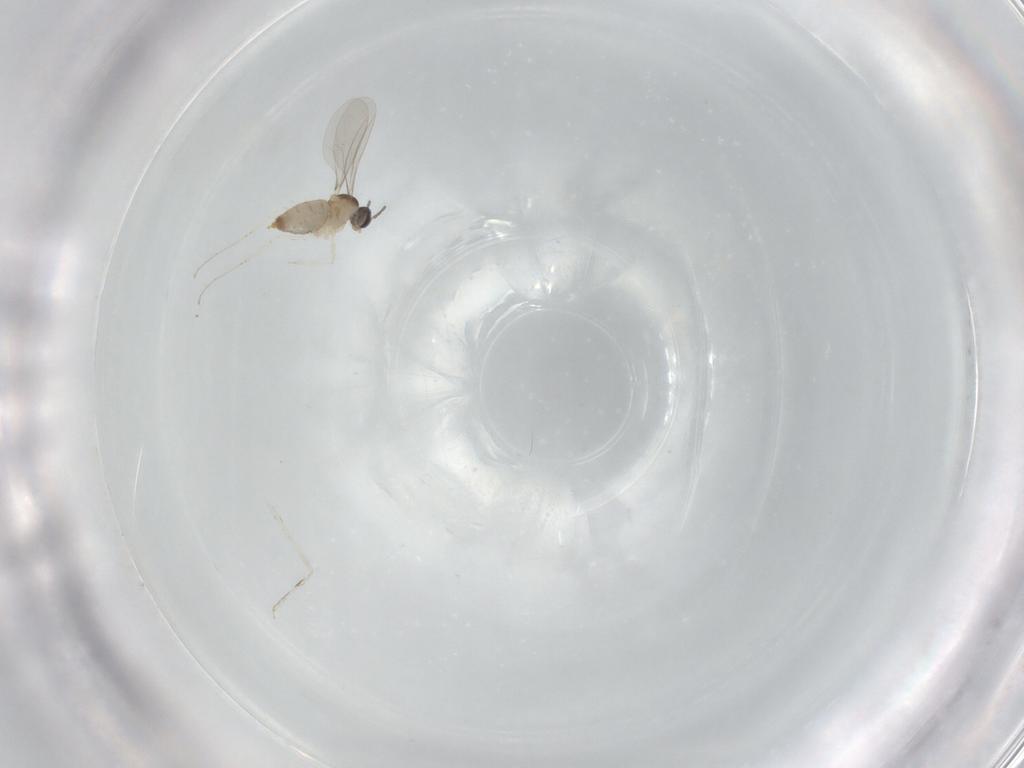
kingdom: Animalia
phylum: Arthropoda
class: Insecta
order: Diptera
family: Cecidomyiidae
